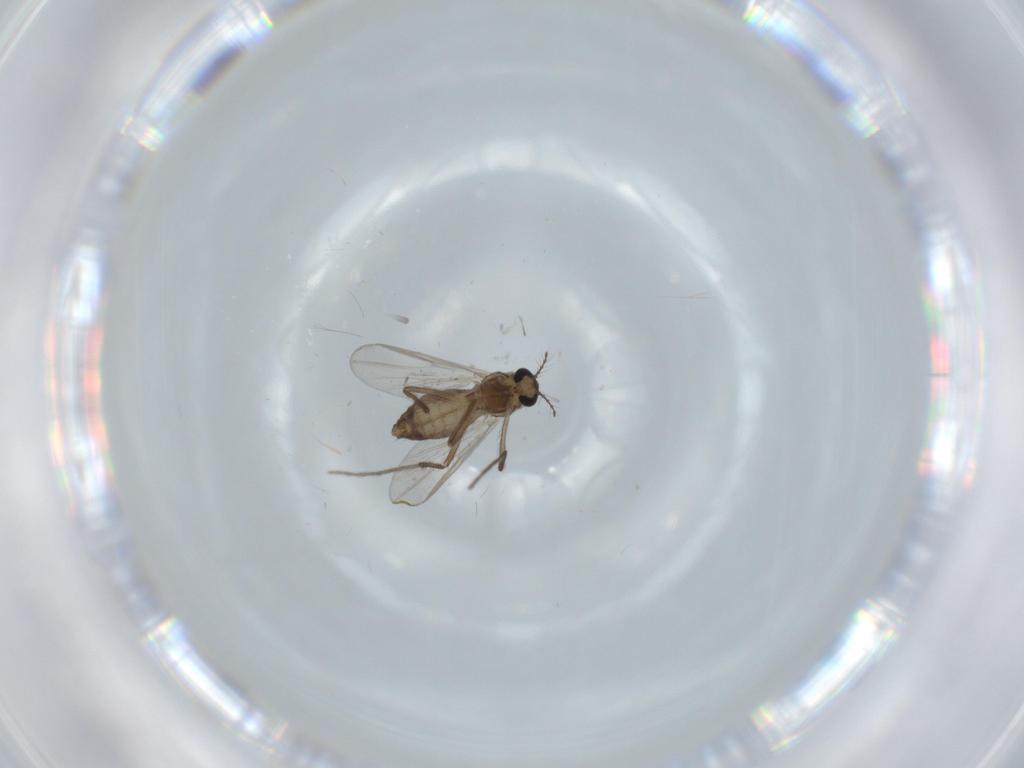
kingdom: Animalia
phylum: Arthropoda
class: Insecta
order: Diptera
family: Chironomidae
